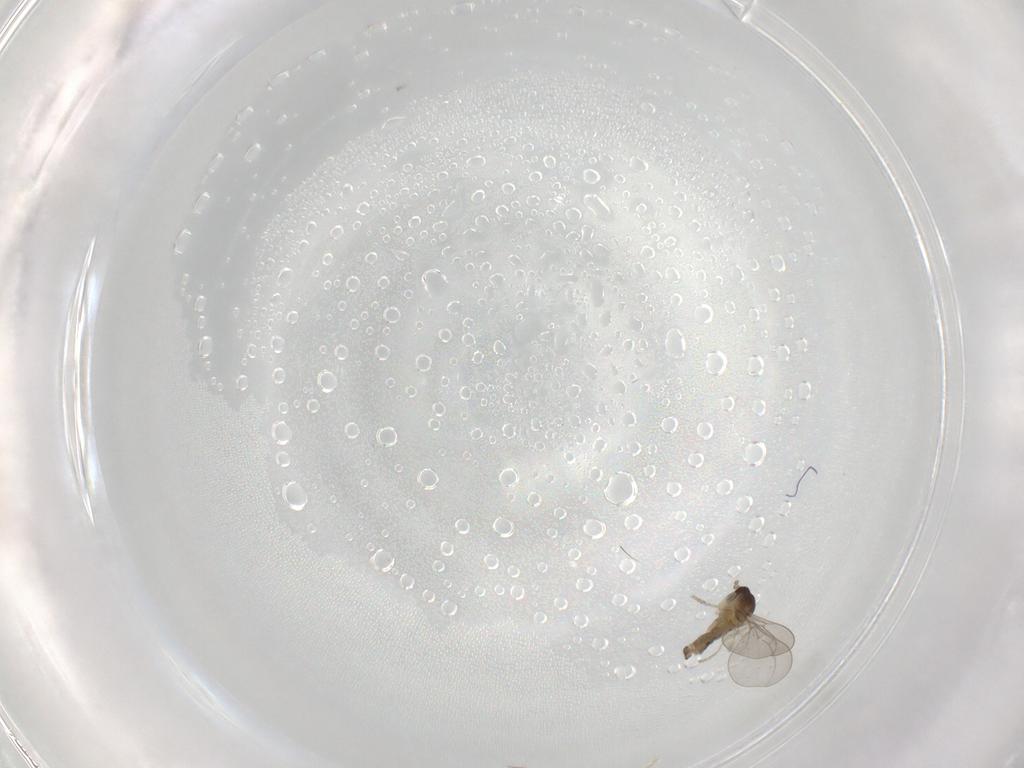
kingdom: Animalia
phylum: Arthropoda
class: Insecta
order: Diptera
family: Cecidomyiidae
